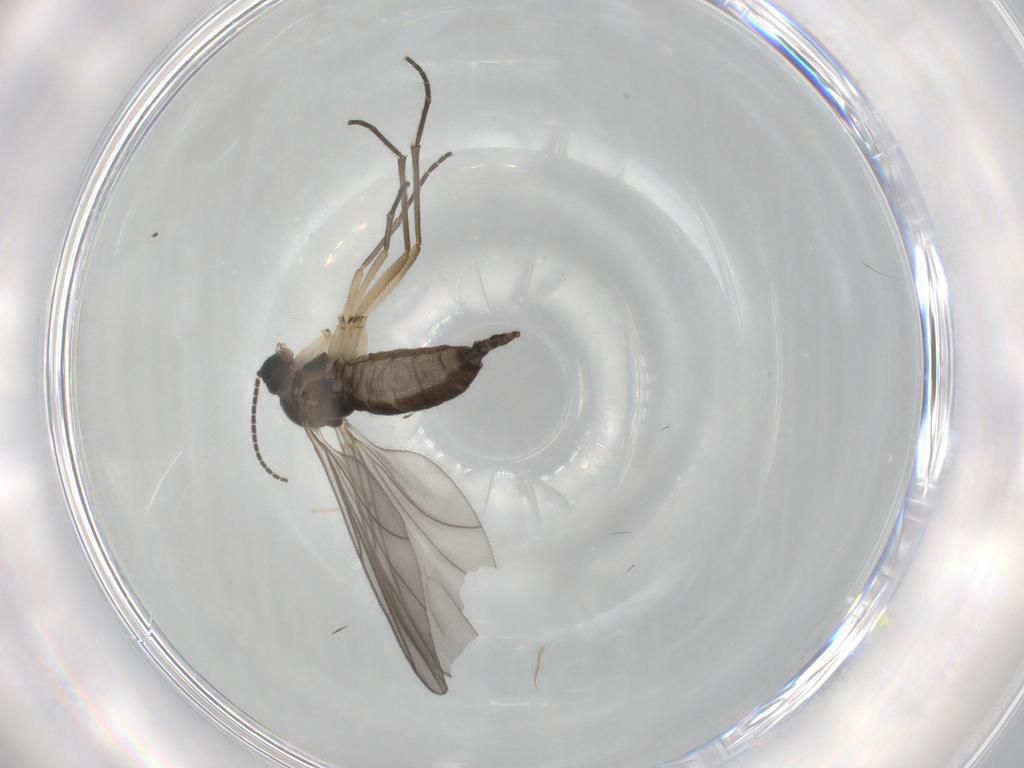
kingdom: Animalia
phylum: Arthropoda
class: Insecta
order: Diptera
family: Sciaridae
